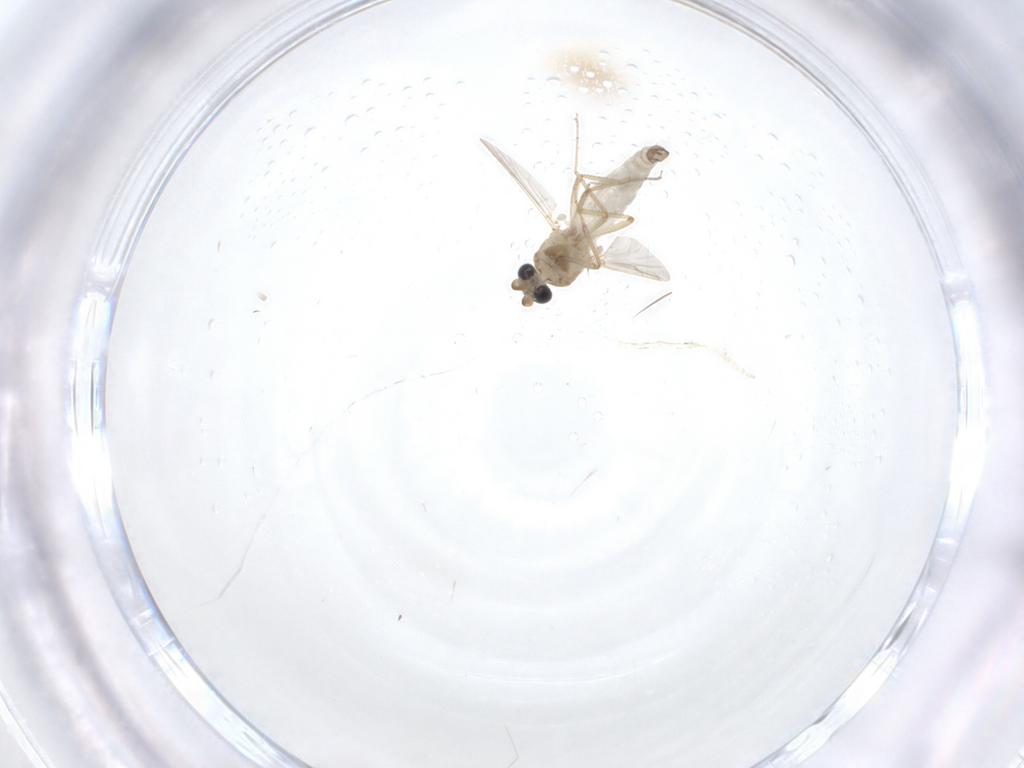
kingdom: Animalia
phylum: Arthropoda
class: Insecta
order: Diptera
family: Ceratopogonidae
